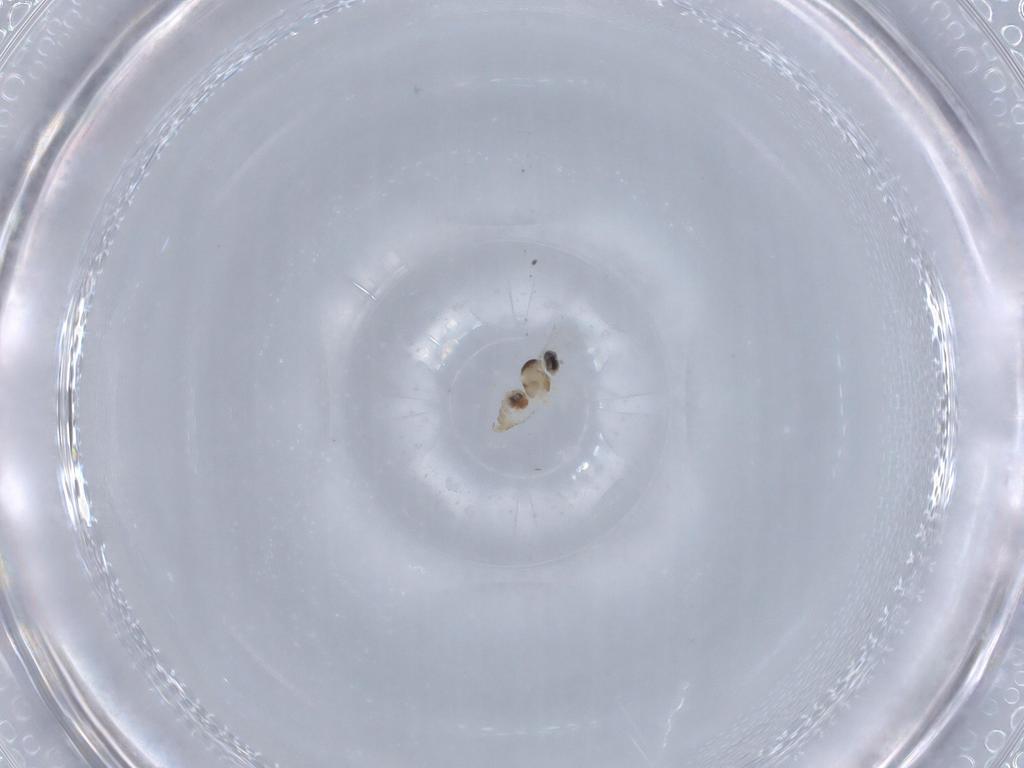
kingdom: Animalia
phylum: Arthropoda
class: Insecta
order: Diptera
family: Cecidomyiidae
